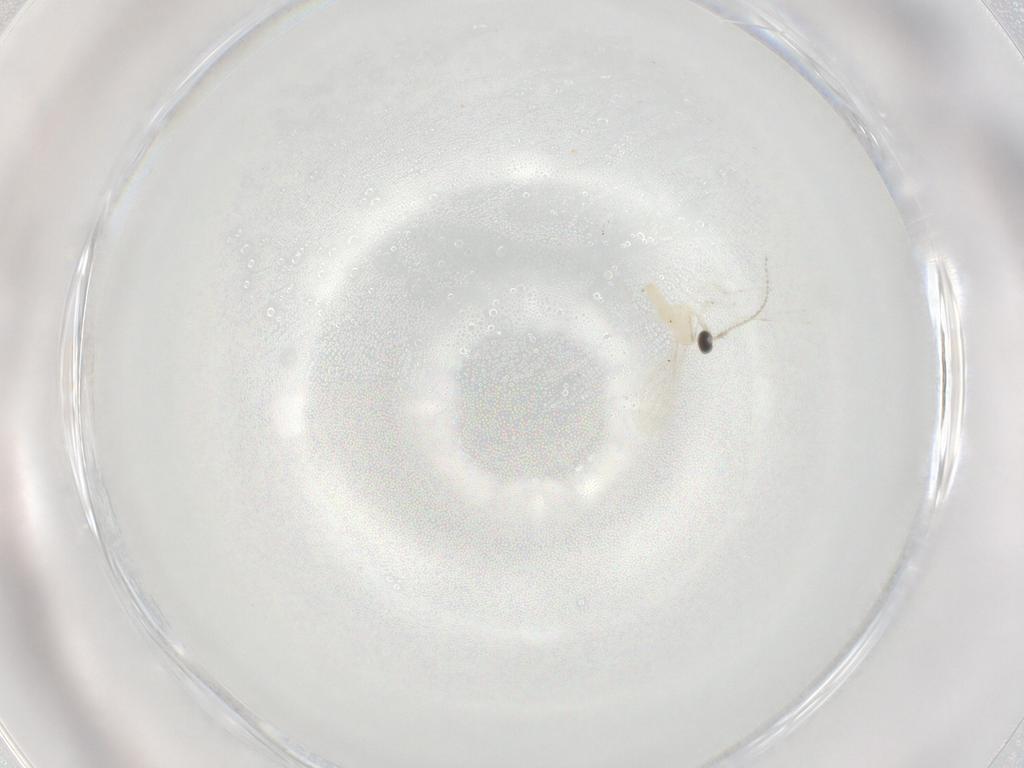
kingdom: Animalia
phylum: Arthropoda
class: Insecta
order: Diptera
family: Cecidomyiidae
